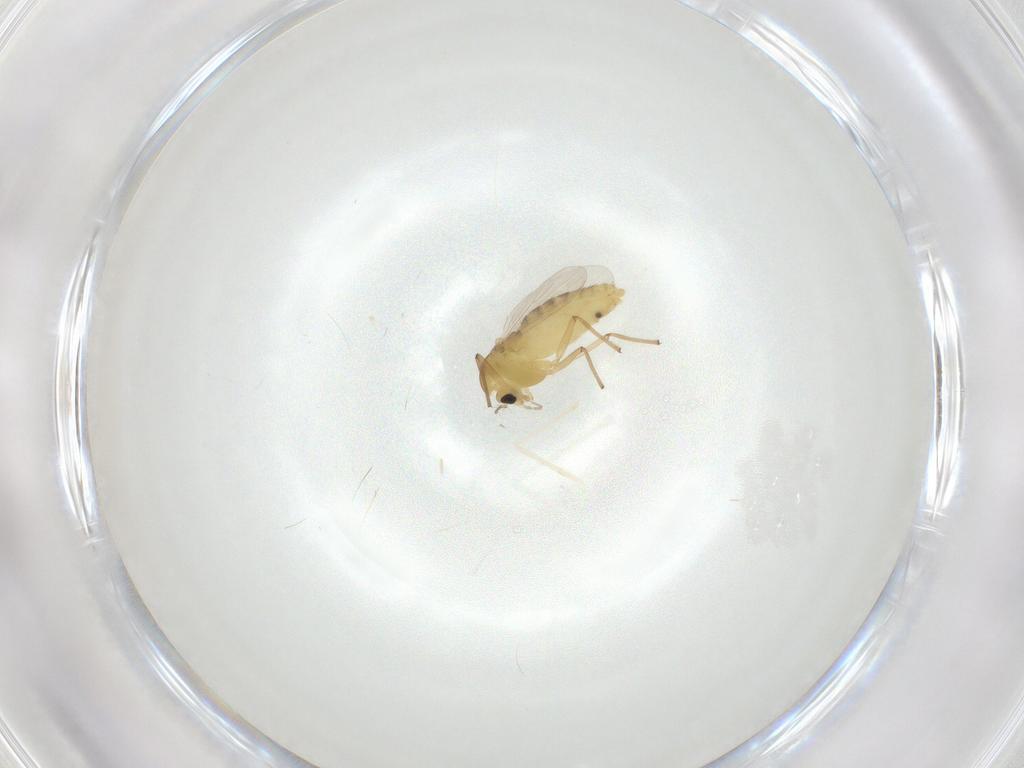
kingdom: Animalia
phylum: Arthropoda
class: Insecta
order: Diptera
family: Chironomidae
